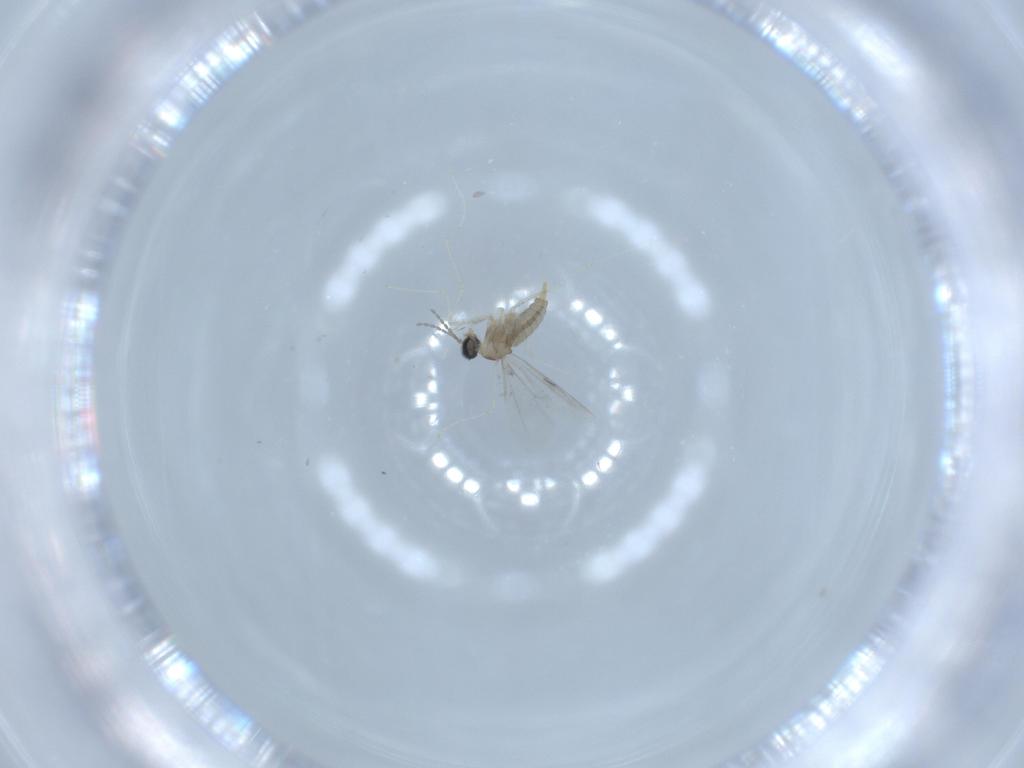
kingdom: Animalia
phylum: Arthropoda
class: Insecta
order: Diptera
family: Cecidomyiidae
